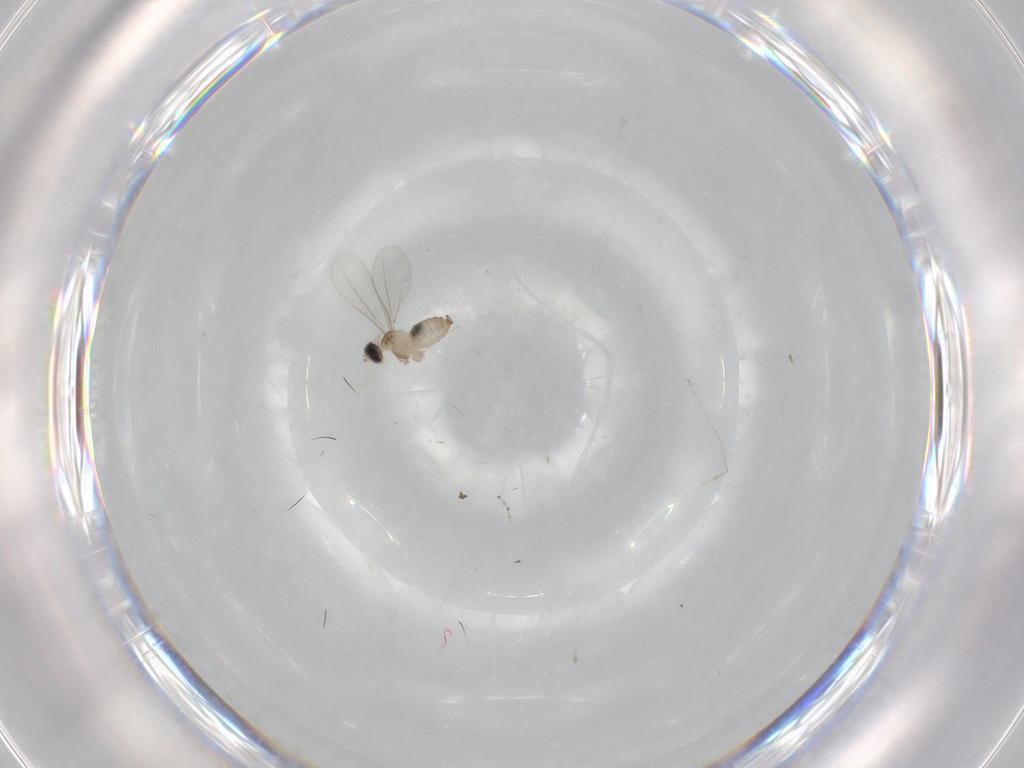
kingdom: Animalia
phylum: Arthropoda
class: Insecta
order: Diptera
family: Cecidomyiidae
